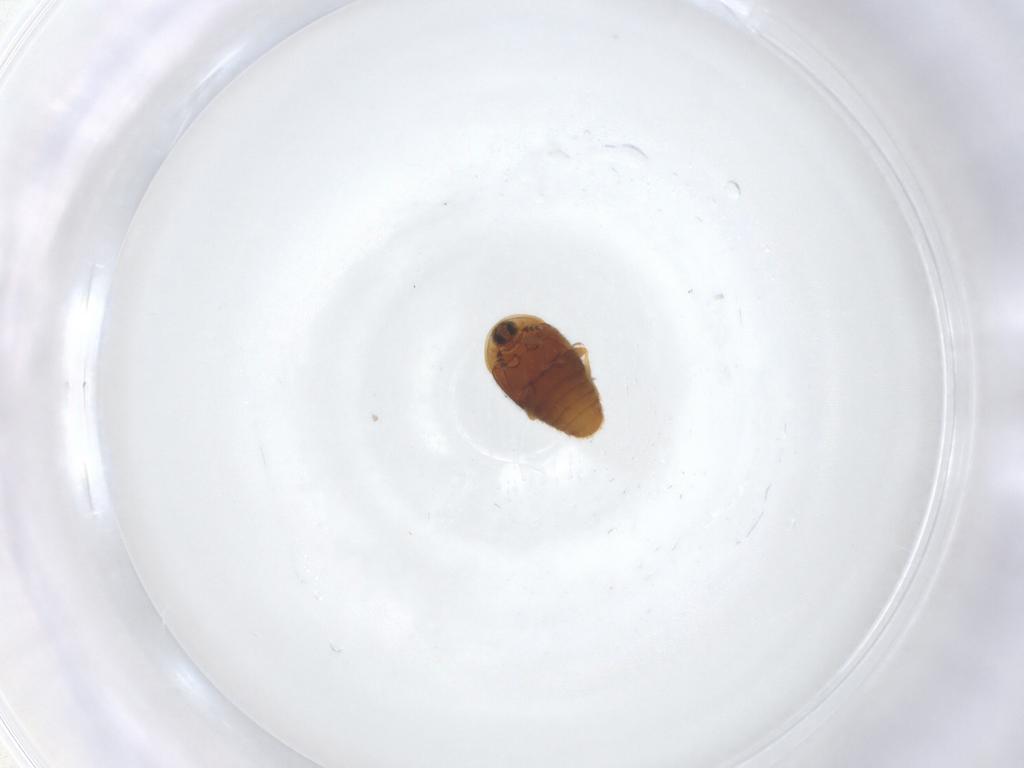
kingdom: Animalia
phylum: Arthropoda
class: Insecta
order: Coleoptera
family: Corylophidae
